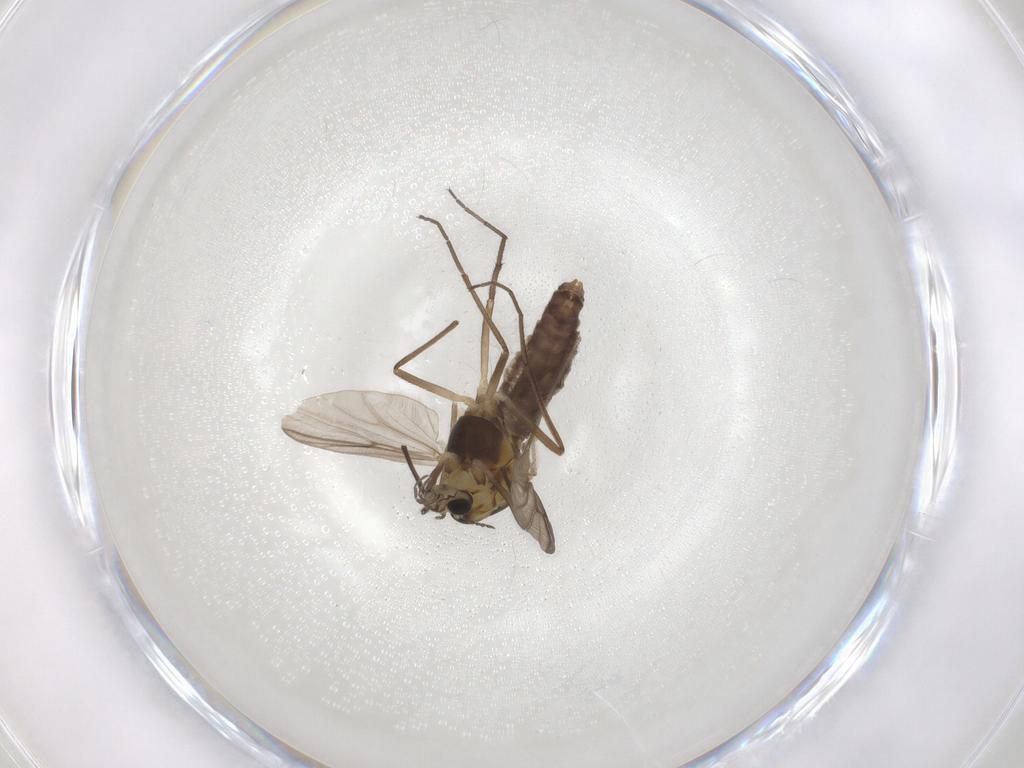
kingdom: Animalia
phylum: Arthropoda
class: Insecta
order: Diptera
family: Chironomidae
